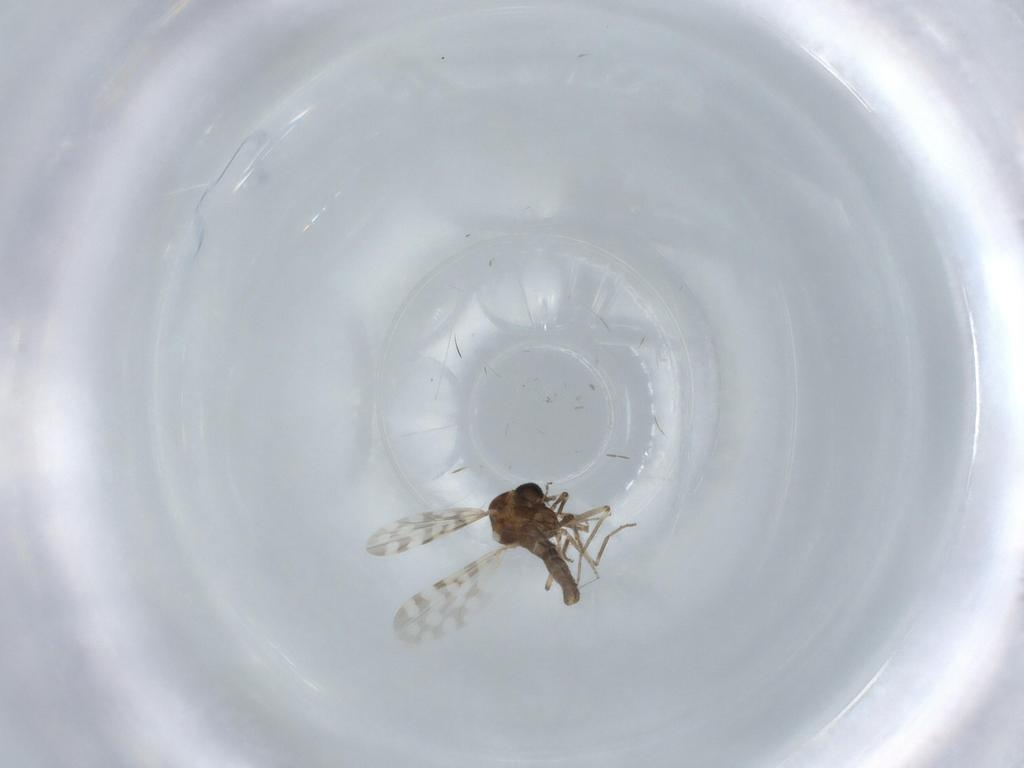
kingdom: Animalia
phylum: Arthropoda
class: Insecta
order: Diptera
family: Ceratopogonidae
